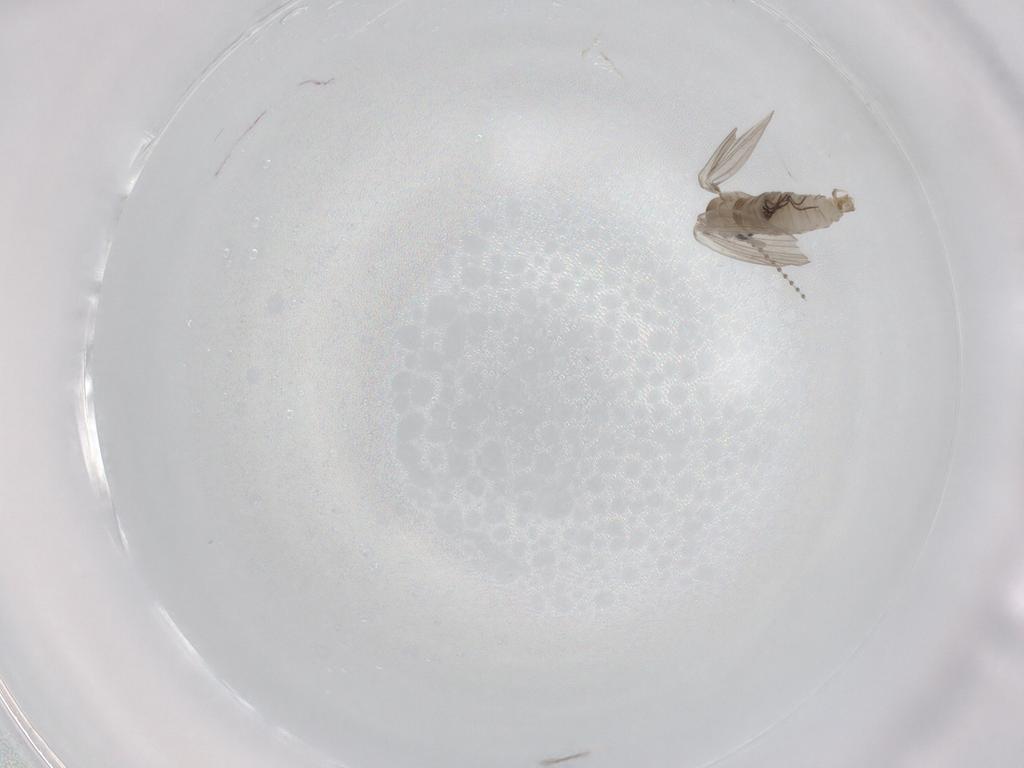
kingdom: Animalia
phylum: Arthropoda
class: Insecta
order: Diptera
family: Psychodidae
